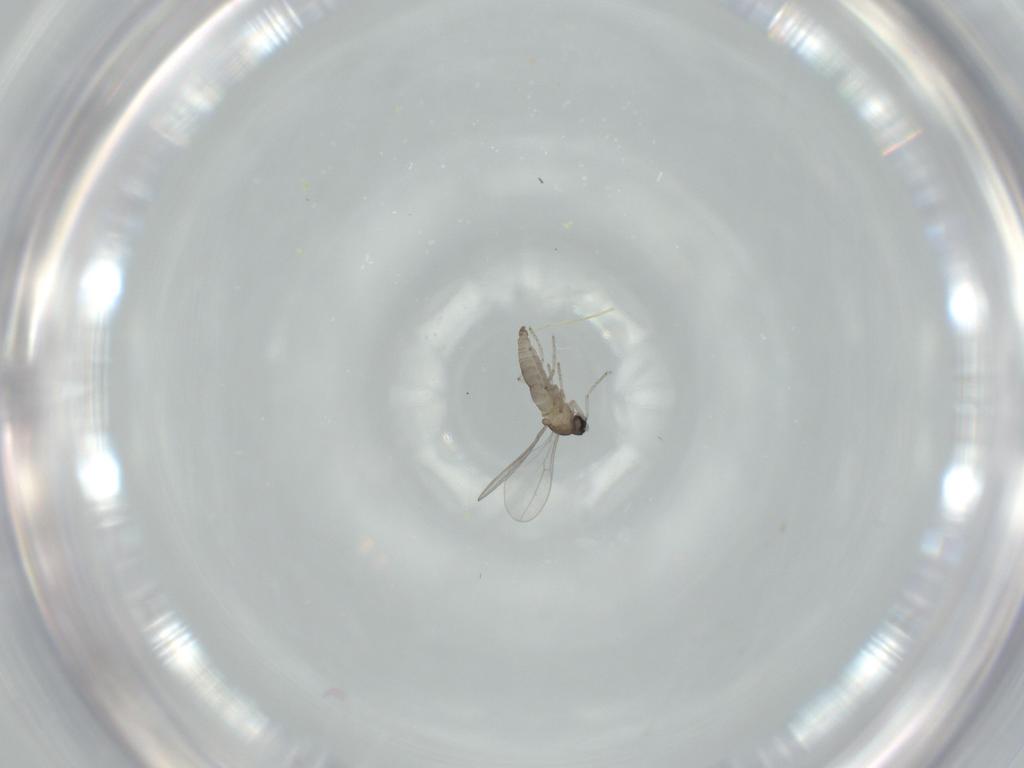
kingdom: Animalia
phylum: Arthropoda
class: Insecta
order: Diptera
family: Cecidomyiidae
